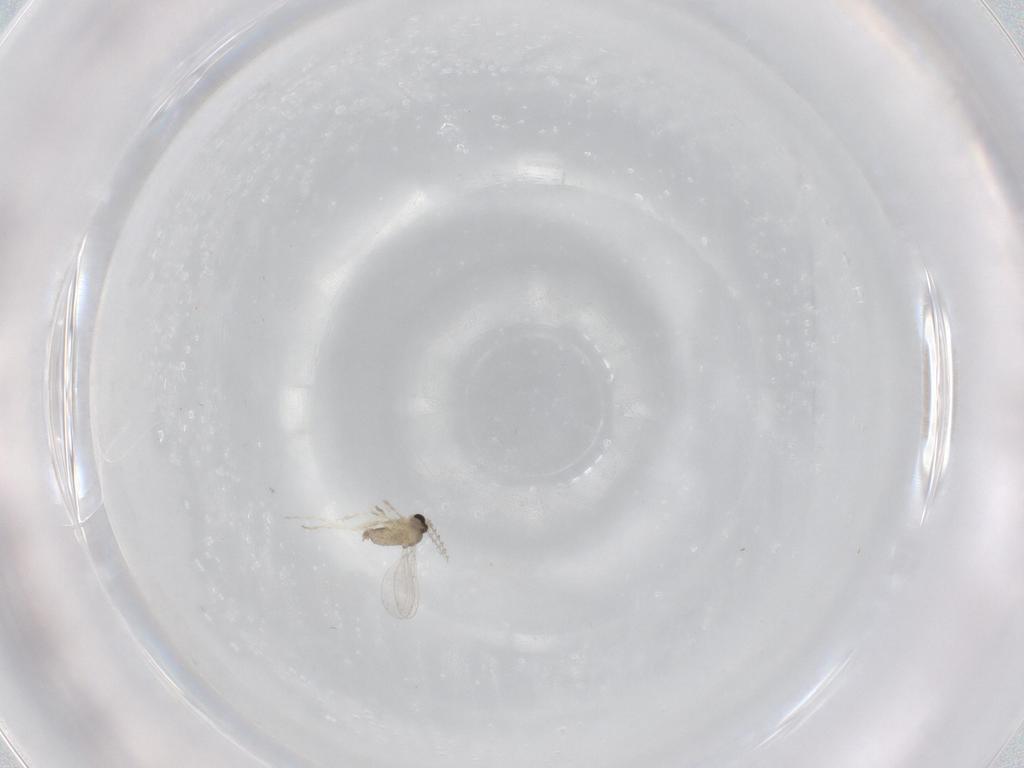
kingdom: Animalia
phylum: Arthropoda
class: Insecta
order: Diptera
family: Cecidomyiidae
